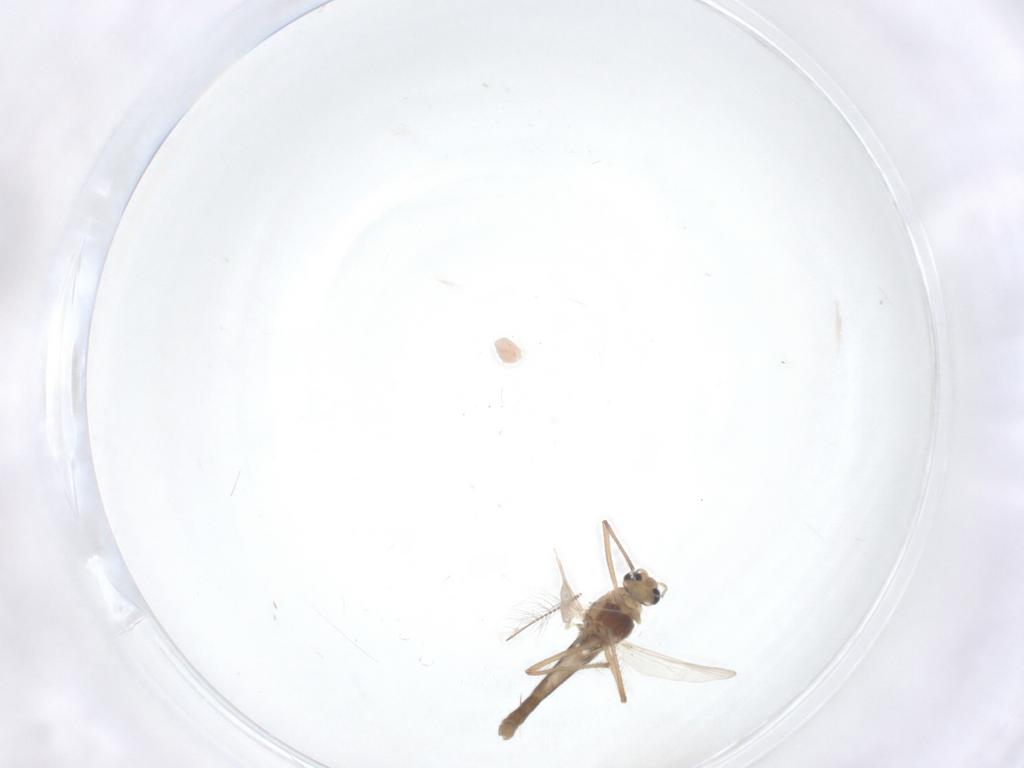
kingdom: Animalia
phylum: Arthropoda
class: Insecta
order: Diptera
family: Chironomidae
